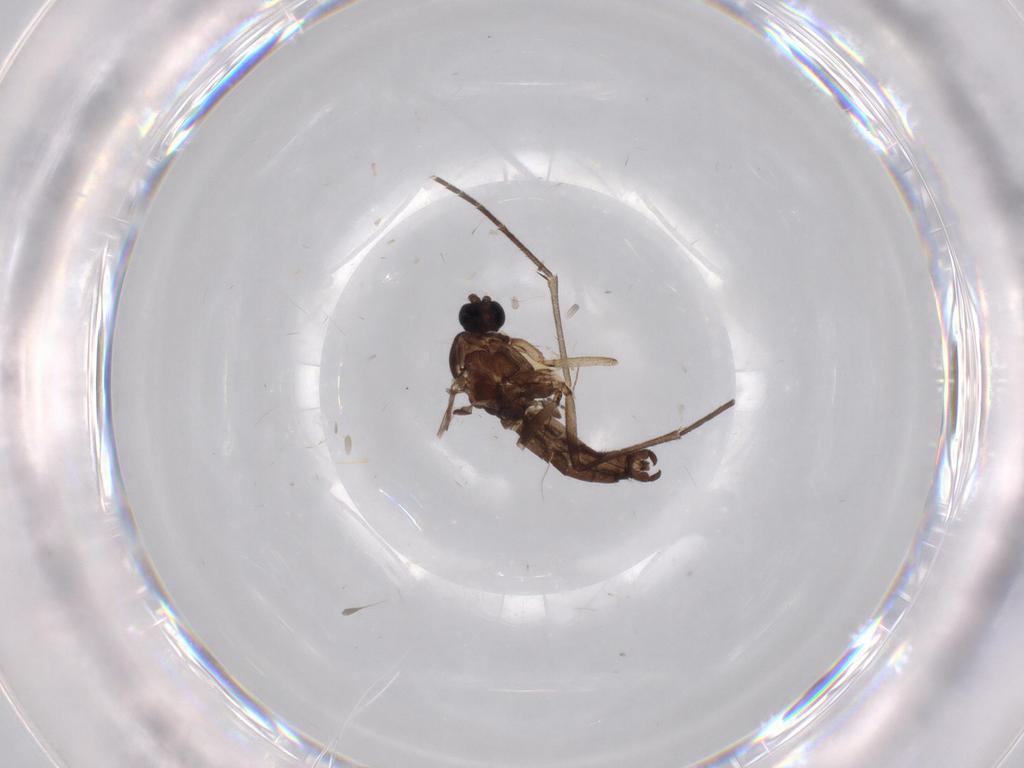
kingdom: Animalia
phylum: Arthropoda
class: Insecta
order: Diptera
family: Sciaridae
